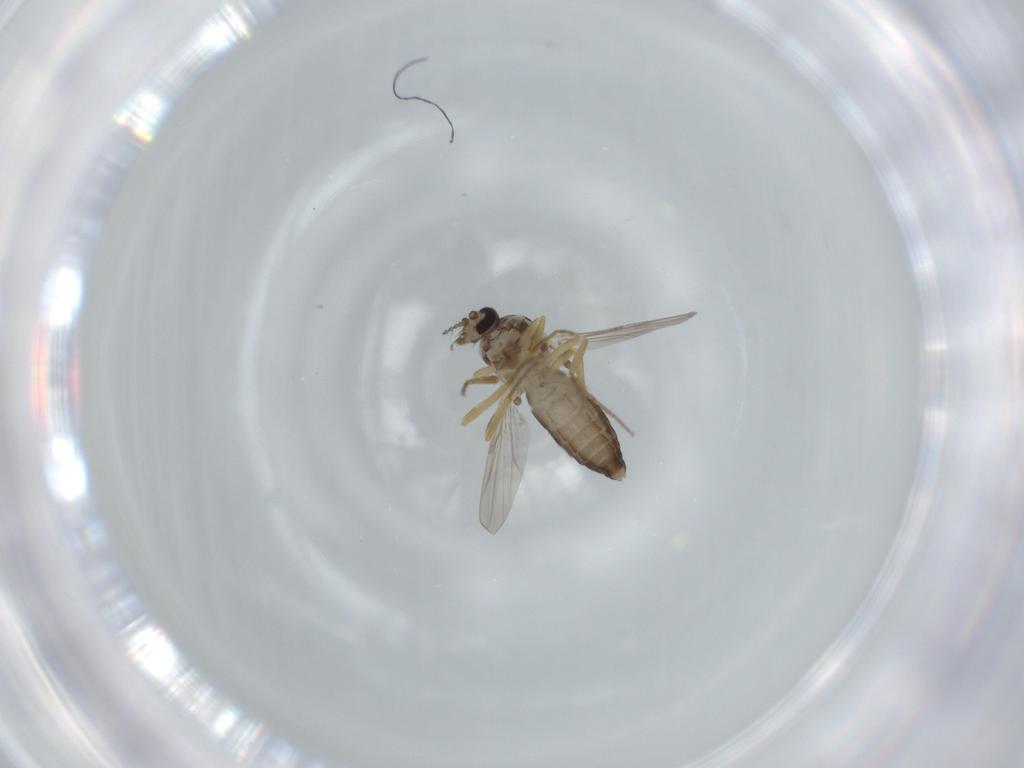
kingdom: Animalia
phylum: Arthropoda
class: Insecta
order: Diptera
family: Ceratopogonidae
